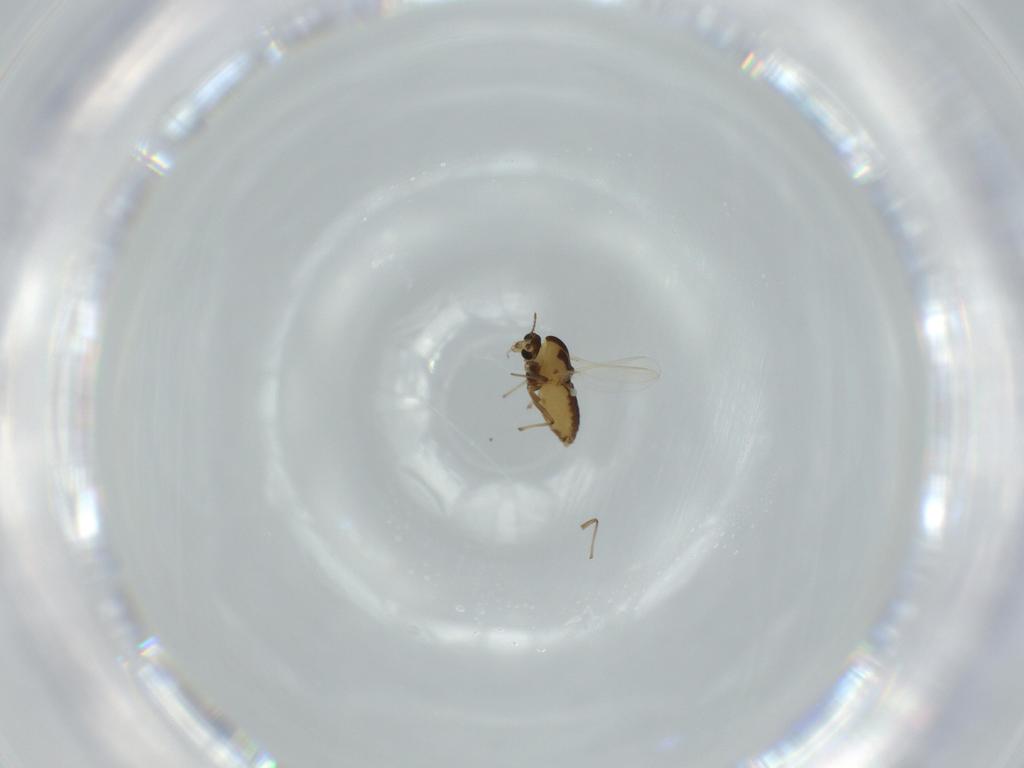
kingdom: Animalia
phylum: Arthropoda
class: Insecta
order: Diptera
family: Chironomidae
